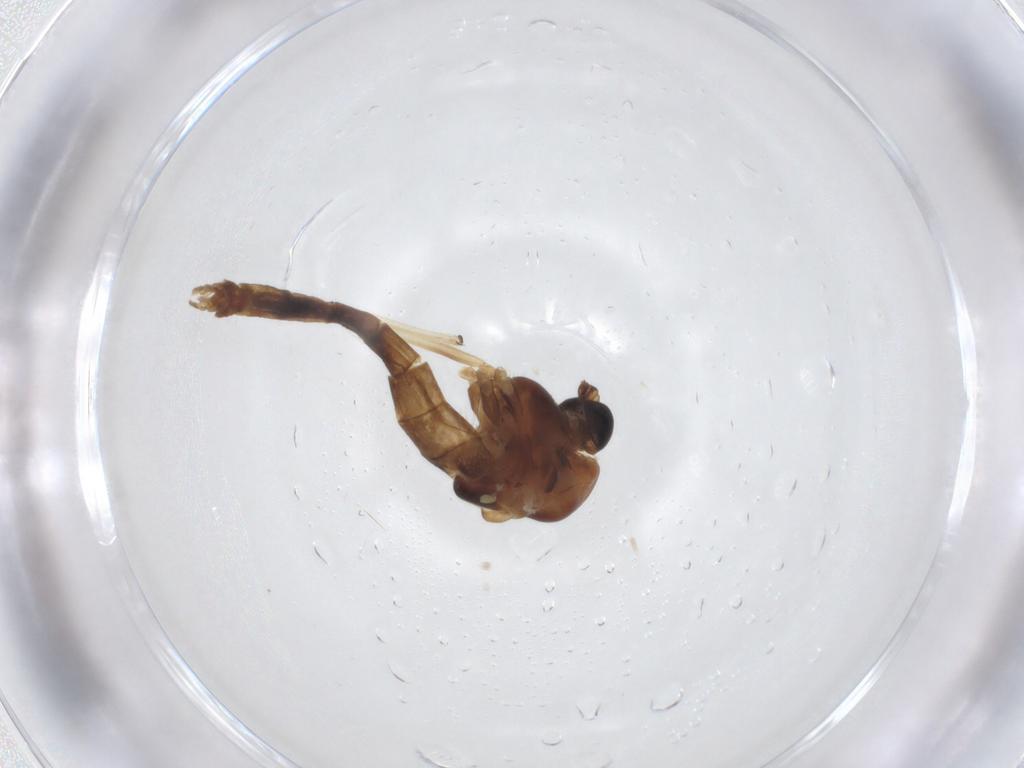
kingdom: Animalia
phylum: Arthropoda
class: Insecta
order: Diptera
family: Chironomidae
